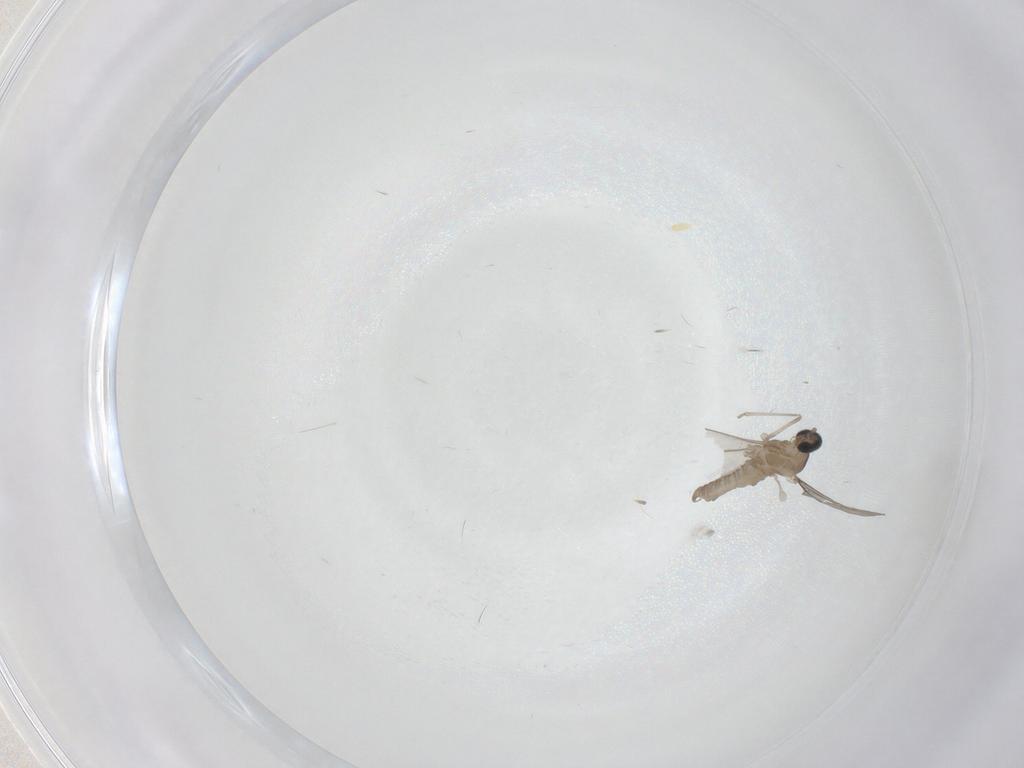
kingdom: Animalia
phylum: Arthropoda
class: Insecta
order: Diptera
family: Cecidomyiidae
